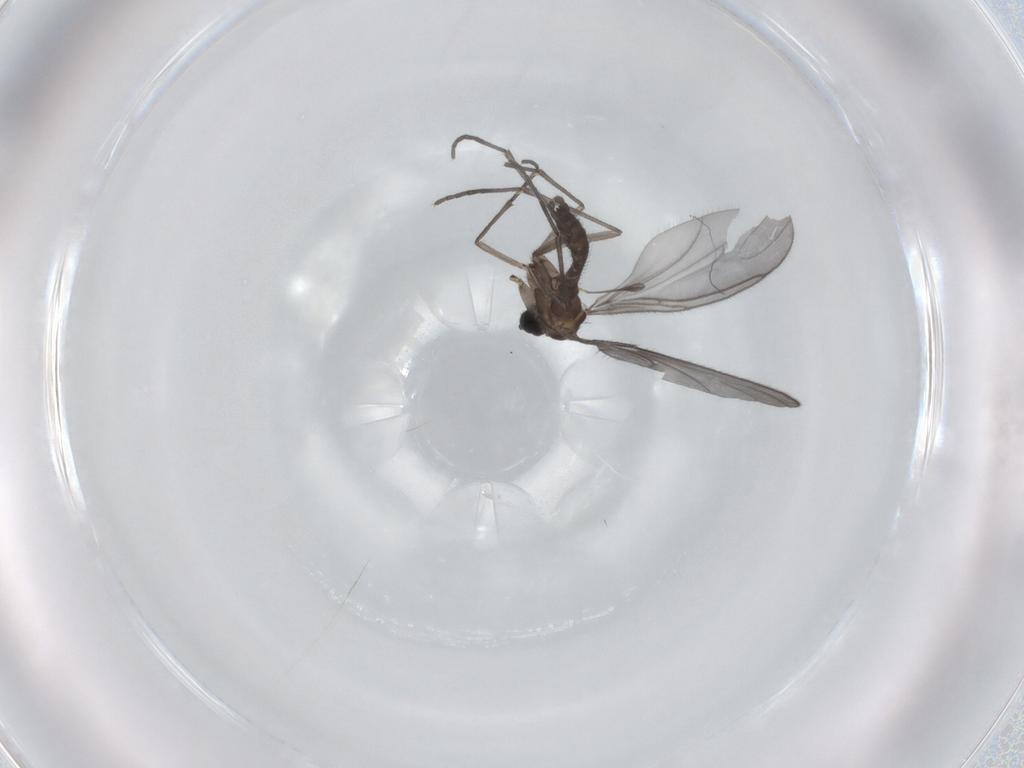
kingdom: Animalia
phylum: Arthropoda
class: Insecta
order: Diptera
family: Sciaridae
